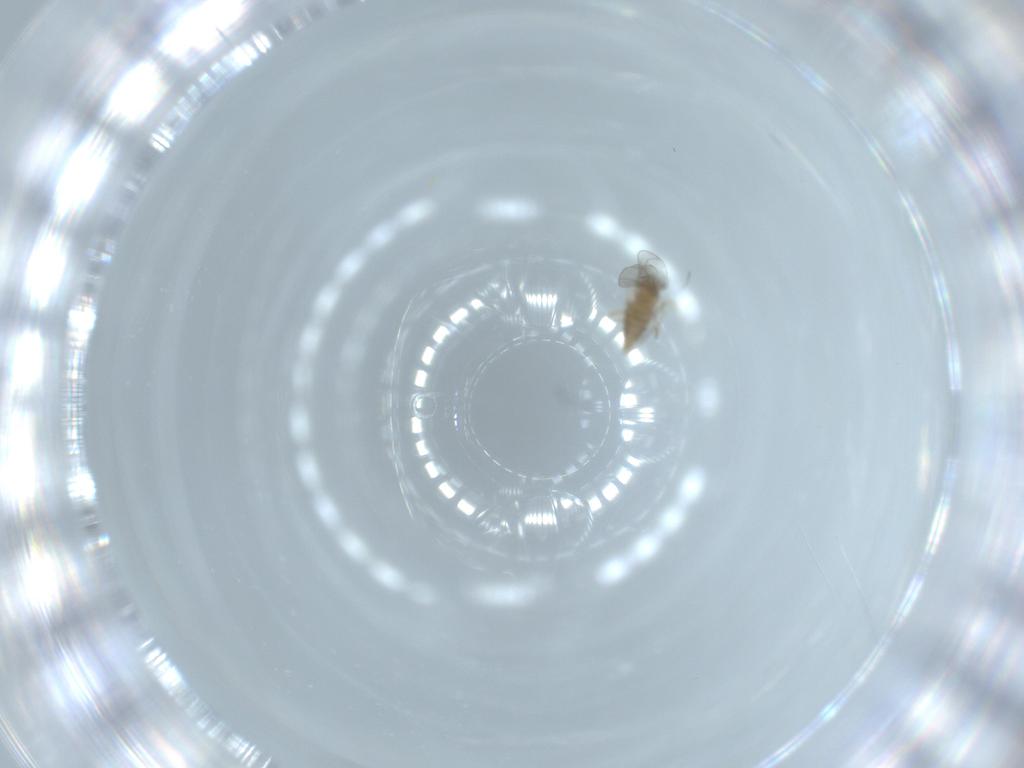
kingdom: Animalia
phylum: Arthropoda
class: Insecta
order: Diptera
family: Cecidomyiidae
